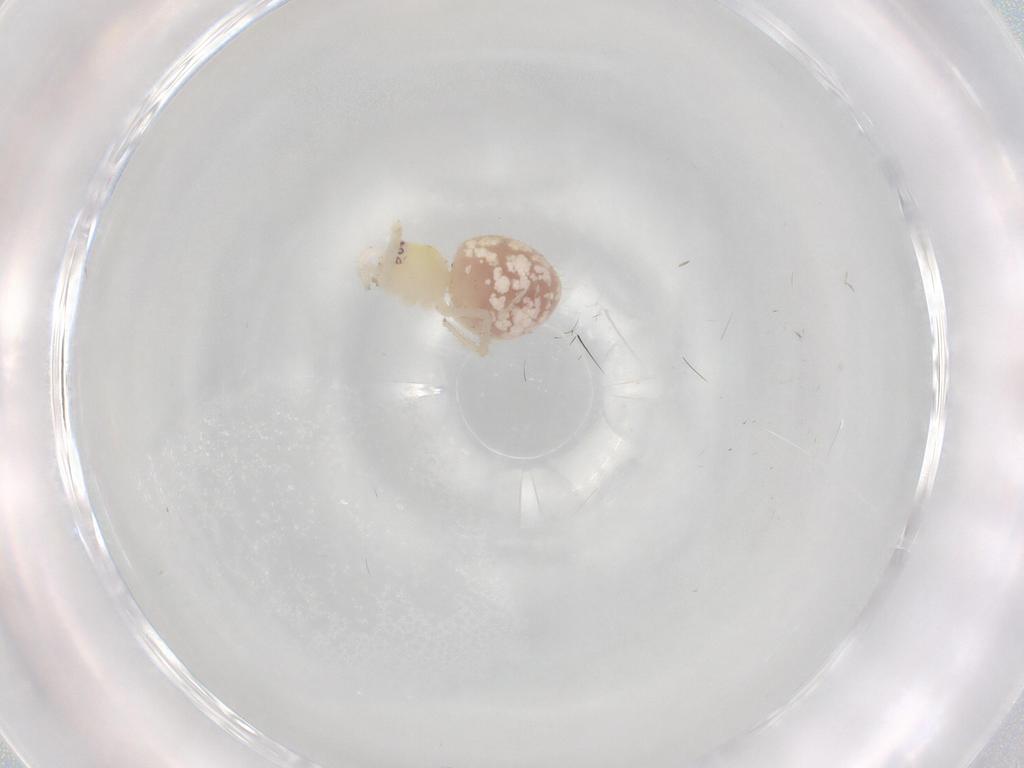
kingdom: Animalia
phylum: Arthropoda
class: Arachnida
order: Araneae
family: Theridiidae
